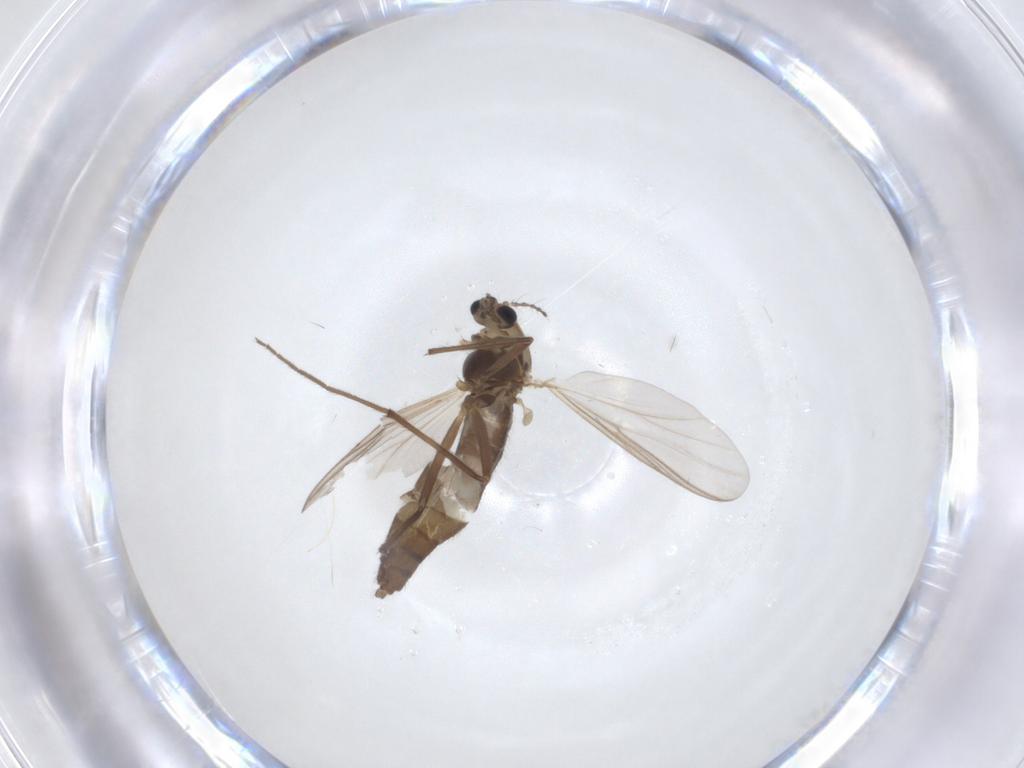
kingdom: Animalia
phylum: Arthropoda
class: Insecta
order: Diptera
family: Chironomidae
